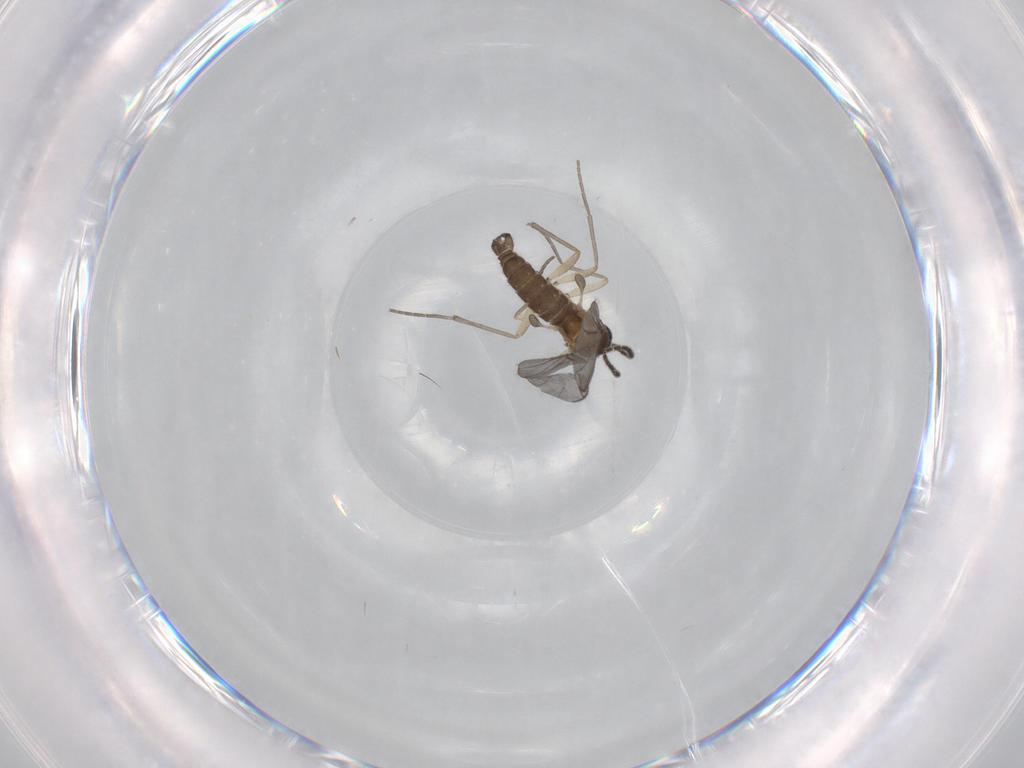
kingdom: Animalia
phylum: Arthropoda
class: Insecta
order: Diptera
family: Sciaridae
